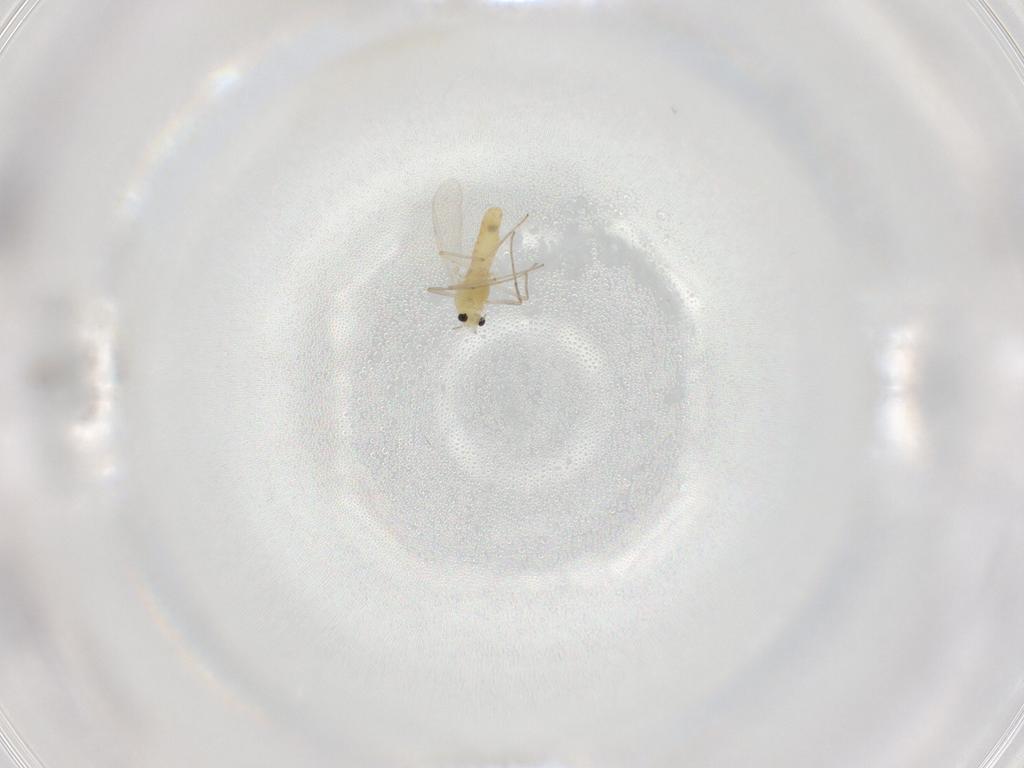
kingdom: Animalia
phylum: Arthropoda
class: Insecta
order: Diptera
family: Chironomidae
